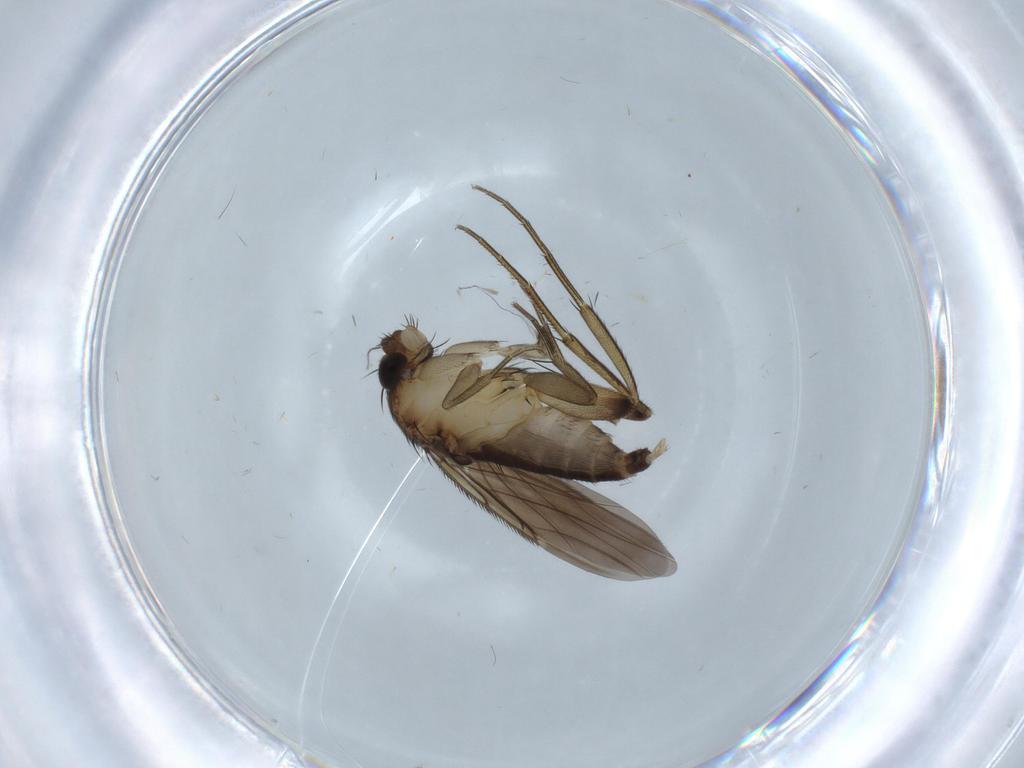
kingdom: Animalia
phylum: Arthropoda
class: Insecta
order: Diptera
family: Phoridae
